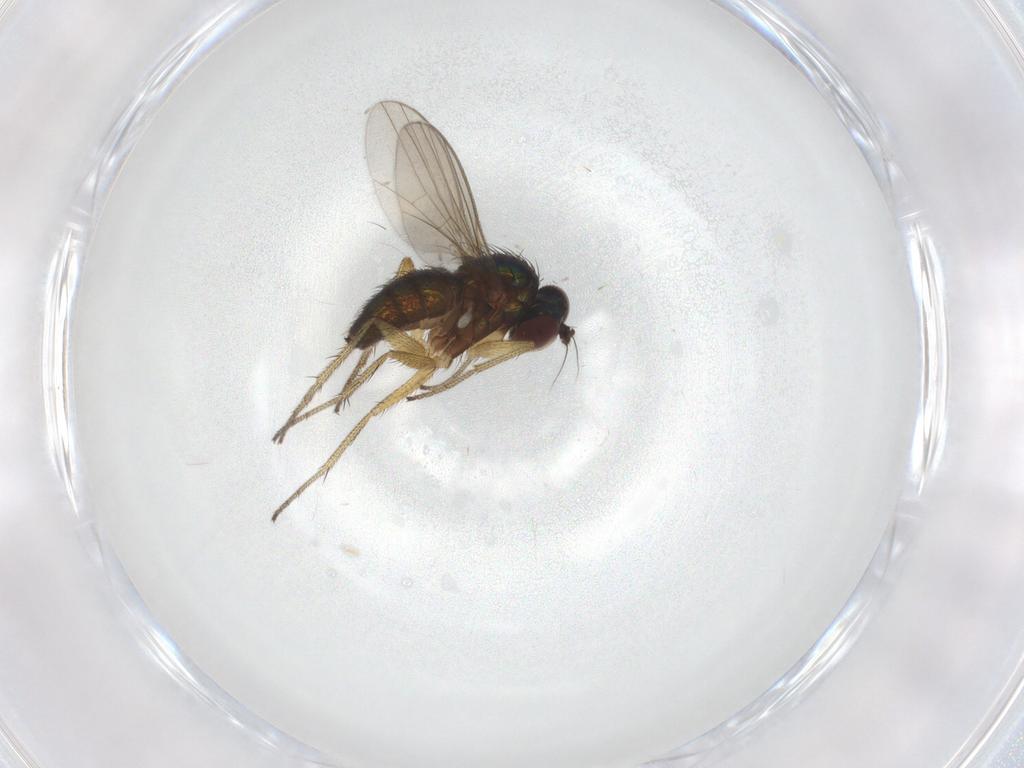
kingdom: Animalia
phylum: Arthropoda
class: Insecta
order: Diptera
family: Dolichopodidae
